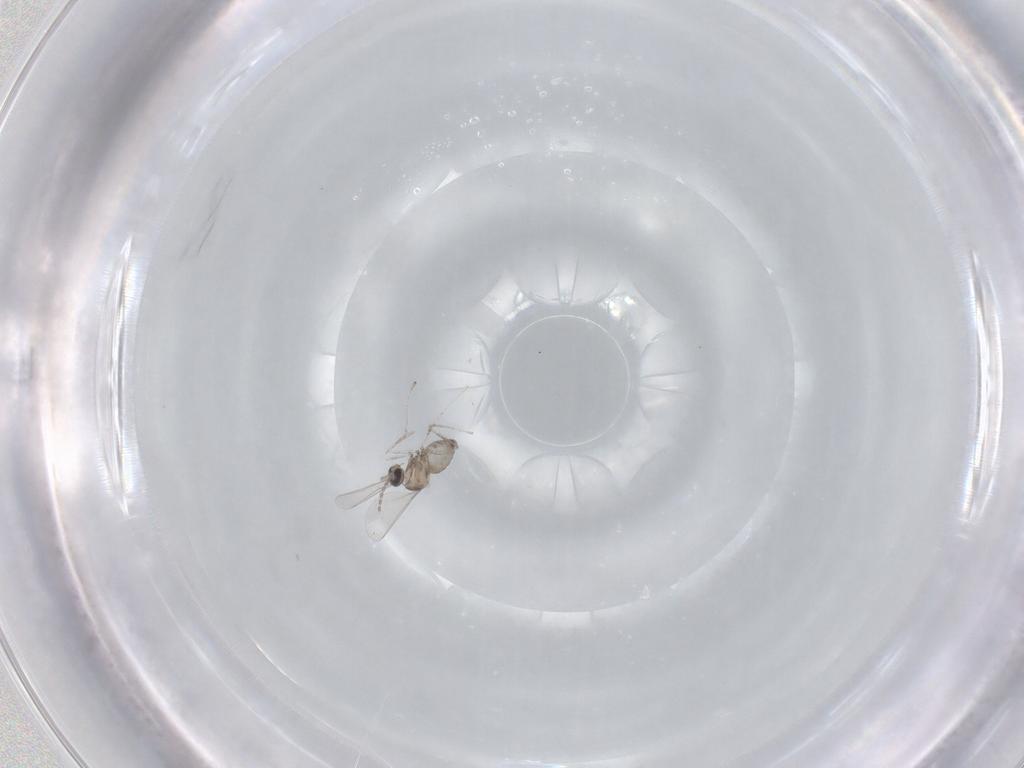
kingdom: Animalia
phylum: Arthropoda
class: Insecta
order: Diptera
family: Cecidomyiidae
